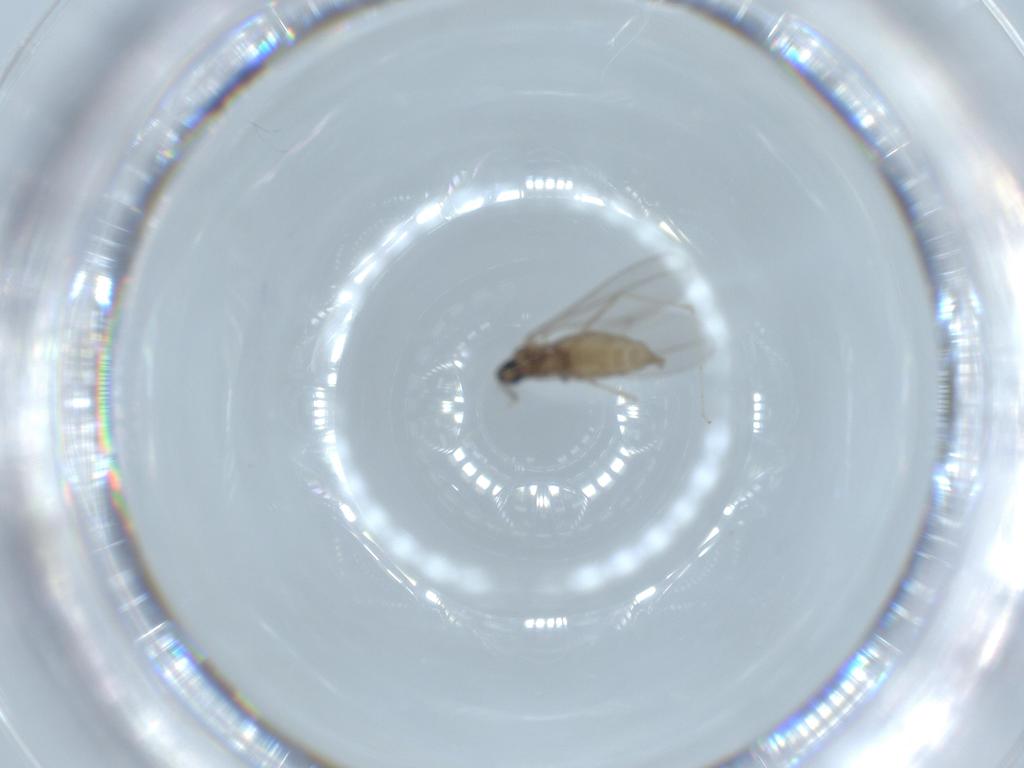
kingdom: Animalia
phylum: Arthropoda
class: Insecta
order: Diptera
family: Cecidomyiidae
